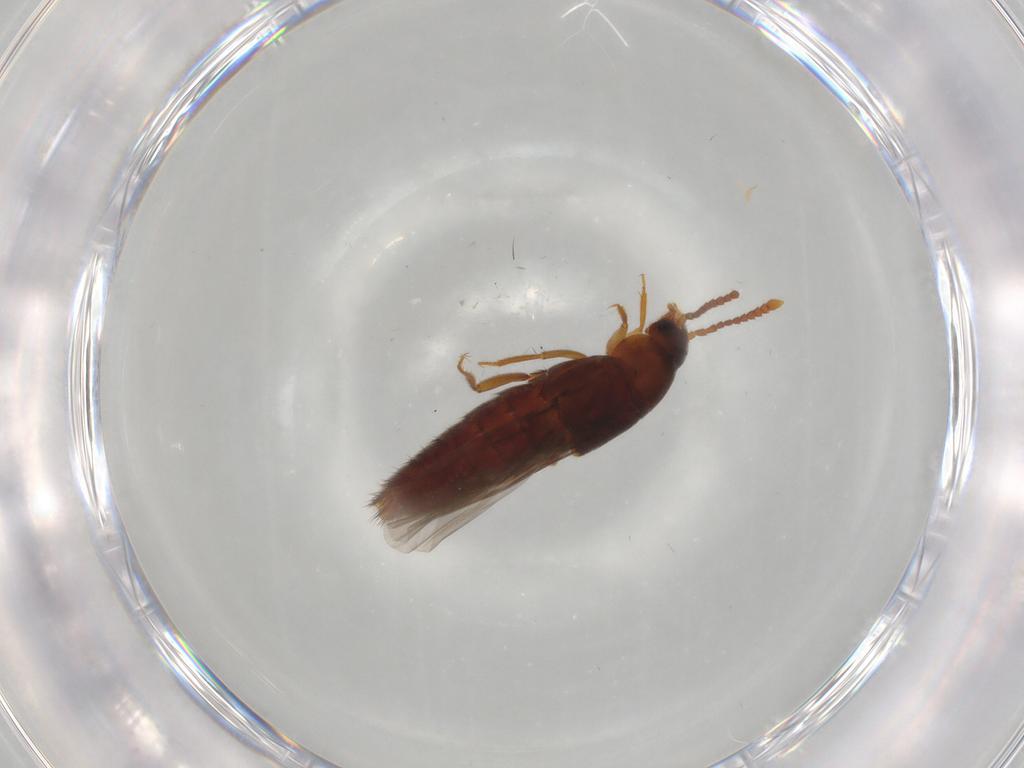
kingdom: Animalia
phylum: Arthropoda
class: Insecta
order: Coleoptera
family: Staphylinidae
